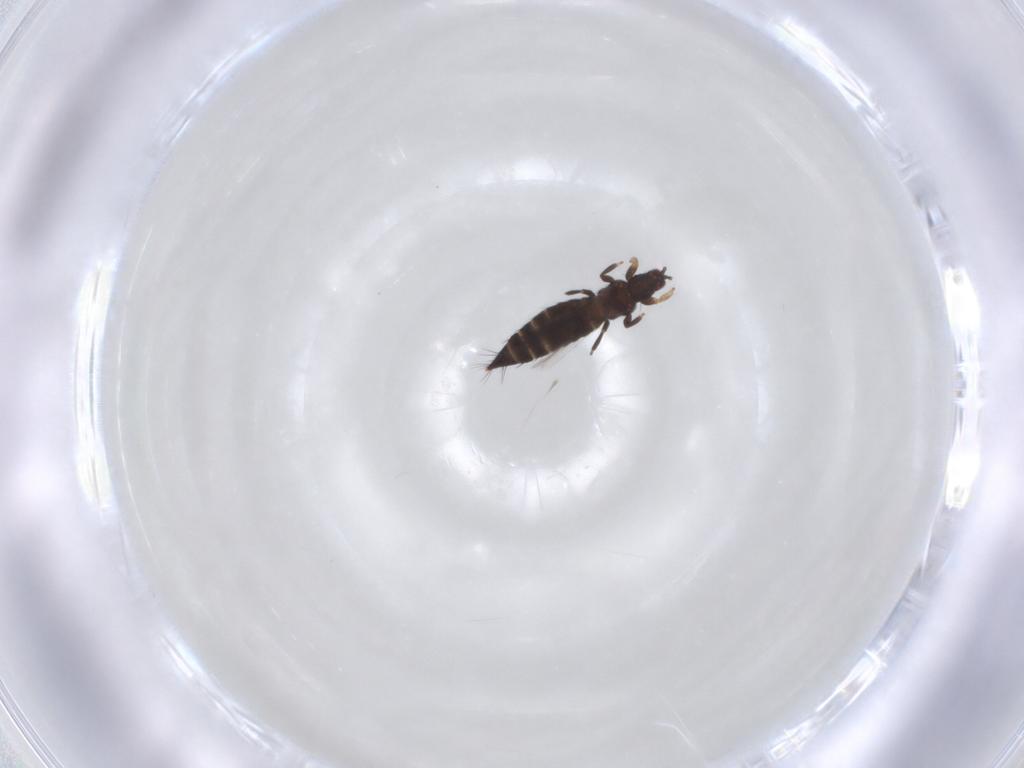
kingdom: Animalia
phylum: Arthropoda
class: Insecta
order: Thysanoptera
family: Thripidae
